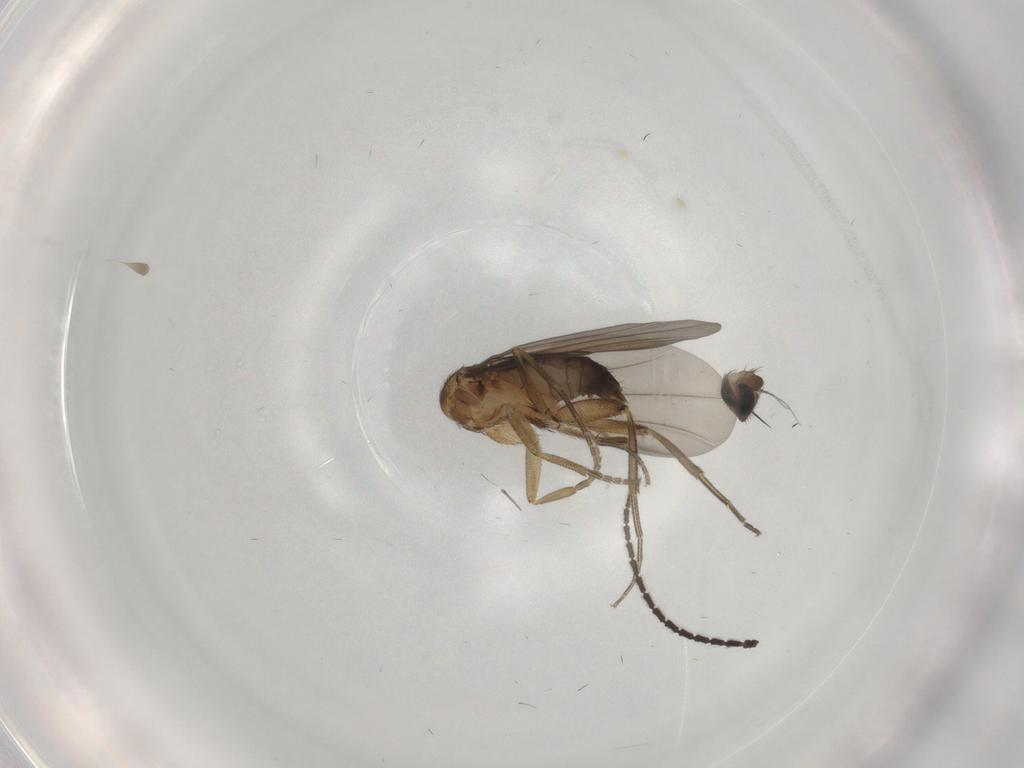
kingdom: Animalia
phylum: Arthropoda
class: Insecta
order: Diptera
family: Phoridae
